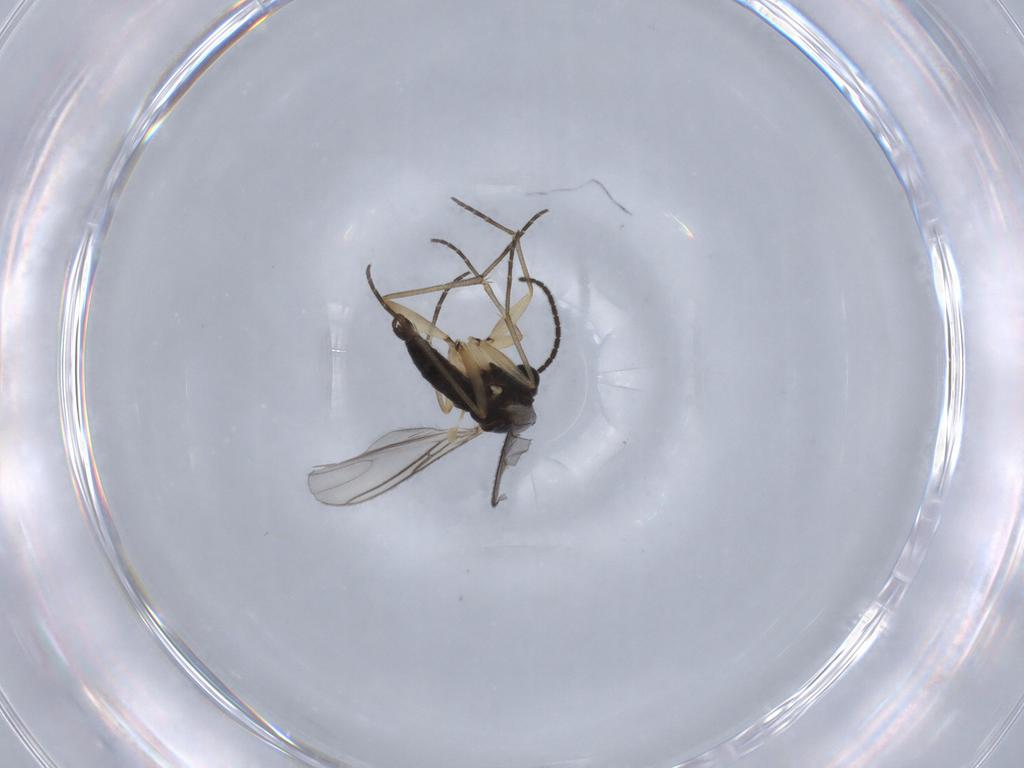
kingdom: Animalia
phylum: Arthropoda
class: Insecta
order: Diptera
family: Sciaridae
